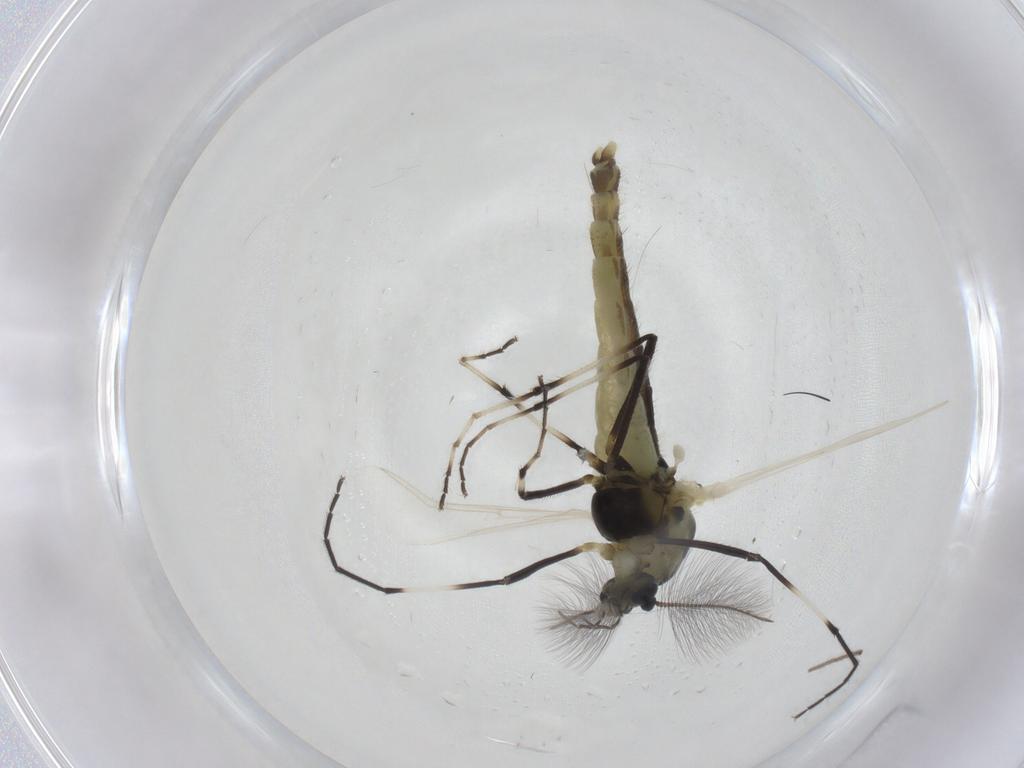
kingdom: Animalia
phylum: Arthropoda
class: Insecta
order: Diptera
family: Chironomidae
